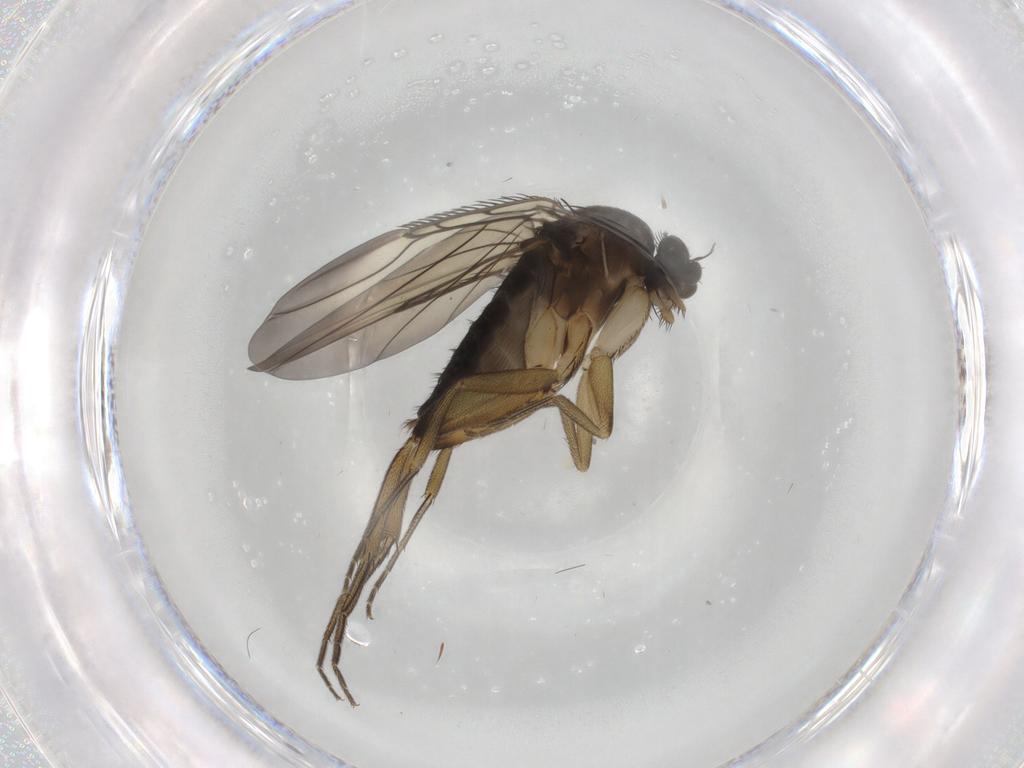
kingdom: Animalia
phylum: Arthropoda
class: Insecta
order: Diptera
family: Phoridae
